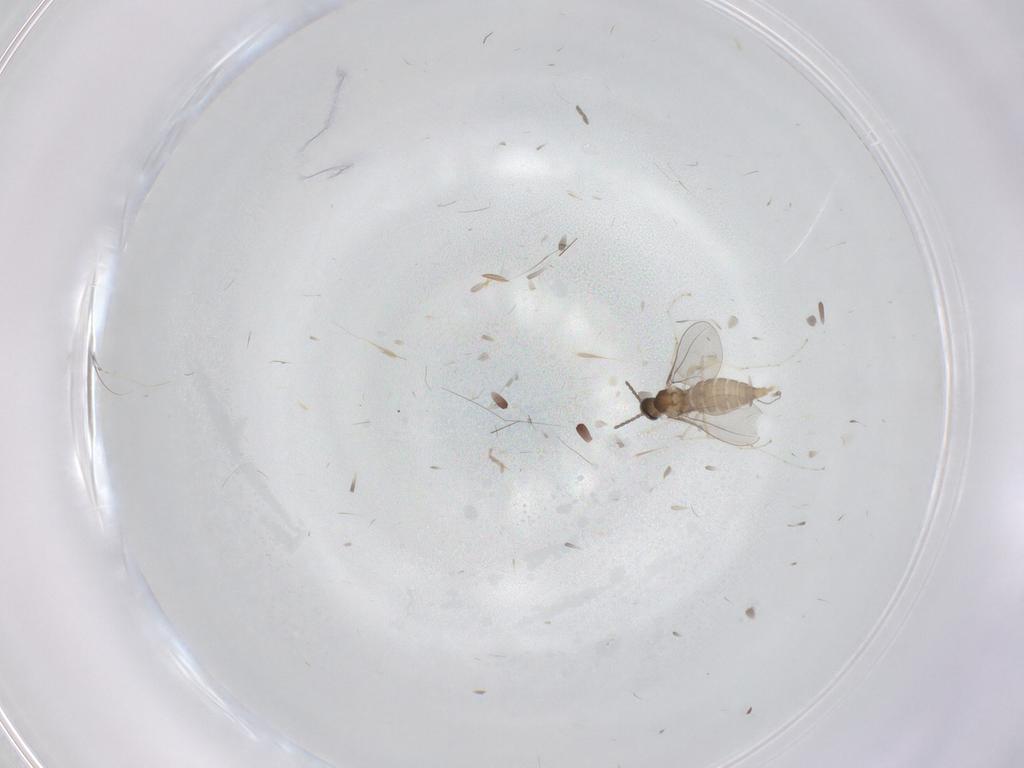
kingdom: Animalia
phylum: Arthropoda
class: Insecta
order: Diptera
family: Cecidomyiidae
